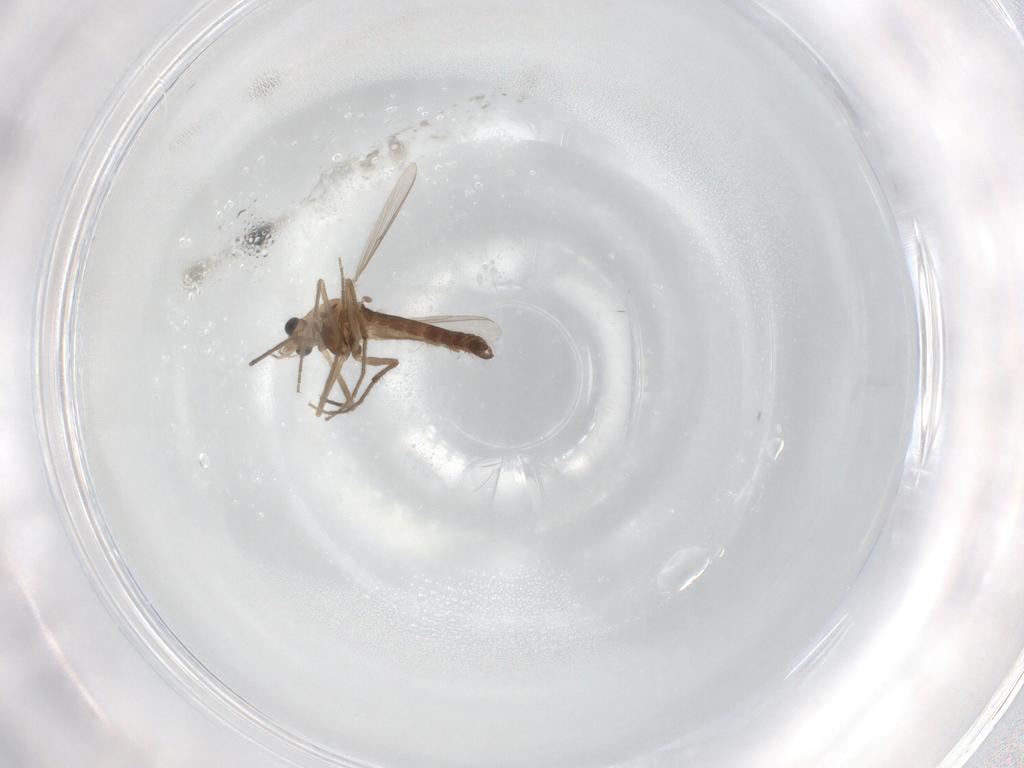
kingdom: Animalia
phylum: Arthropoda
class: Insecta
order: Diptera
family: Chironomidae
